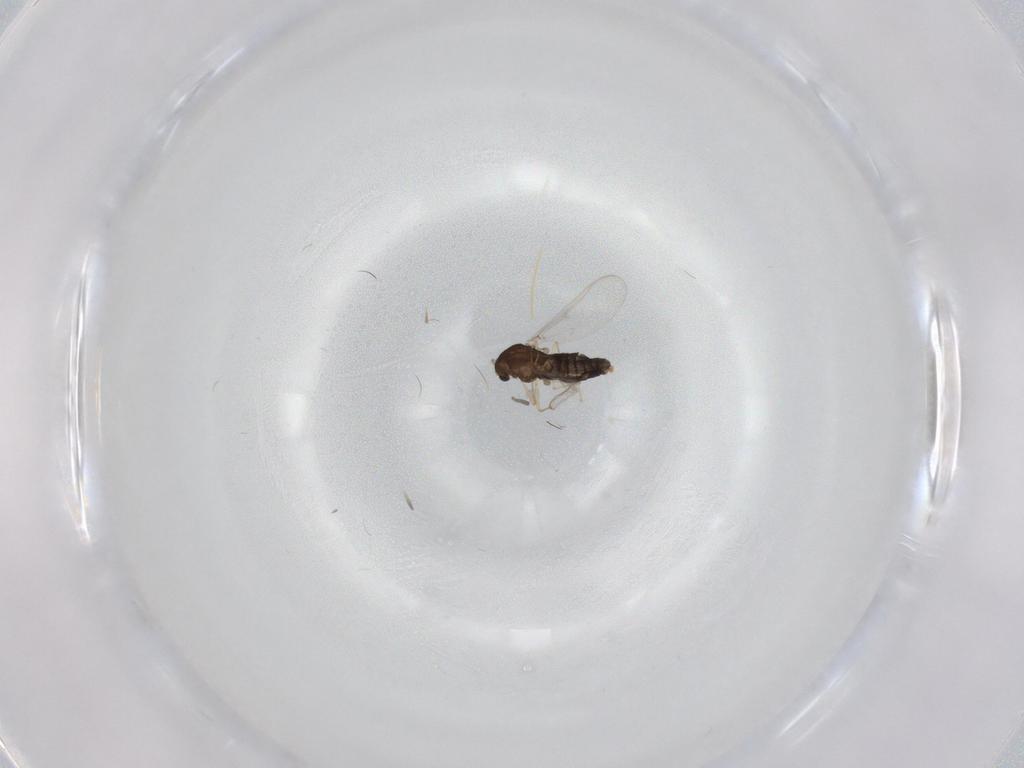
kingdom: Animalia
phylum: Arthropoda
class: Insecta
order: Diptera
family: Chironomidae
